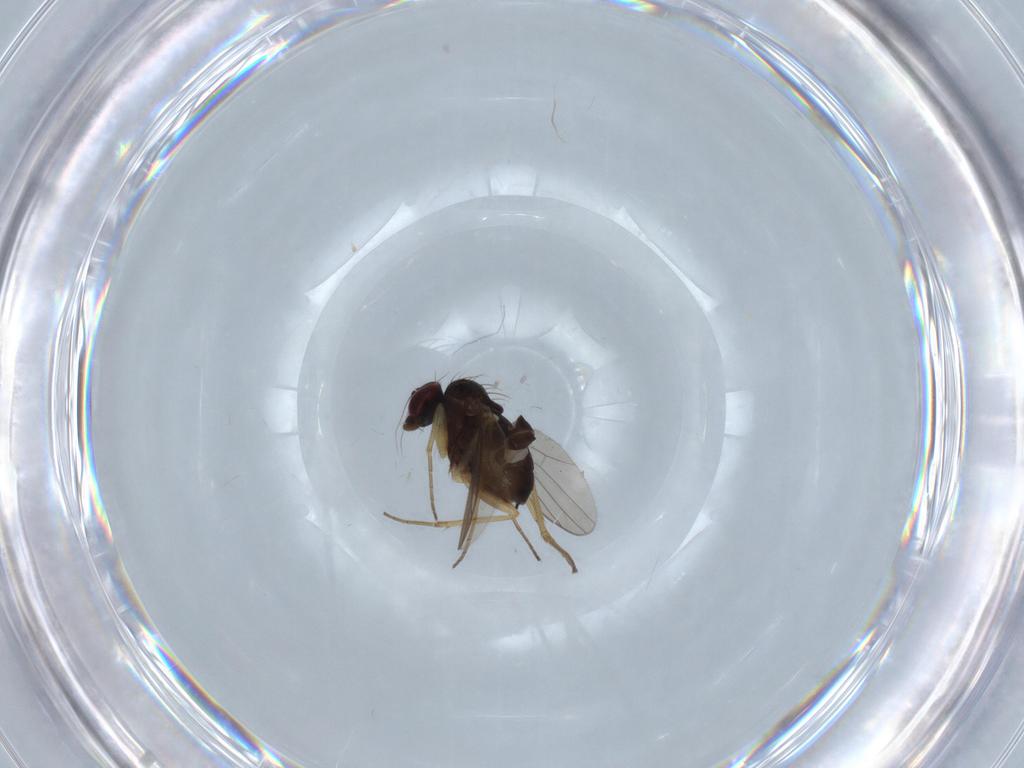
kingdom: Animalia
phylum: Arthropoda
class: Insecta
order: Diptera
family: Dolichopodidae
